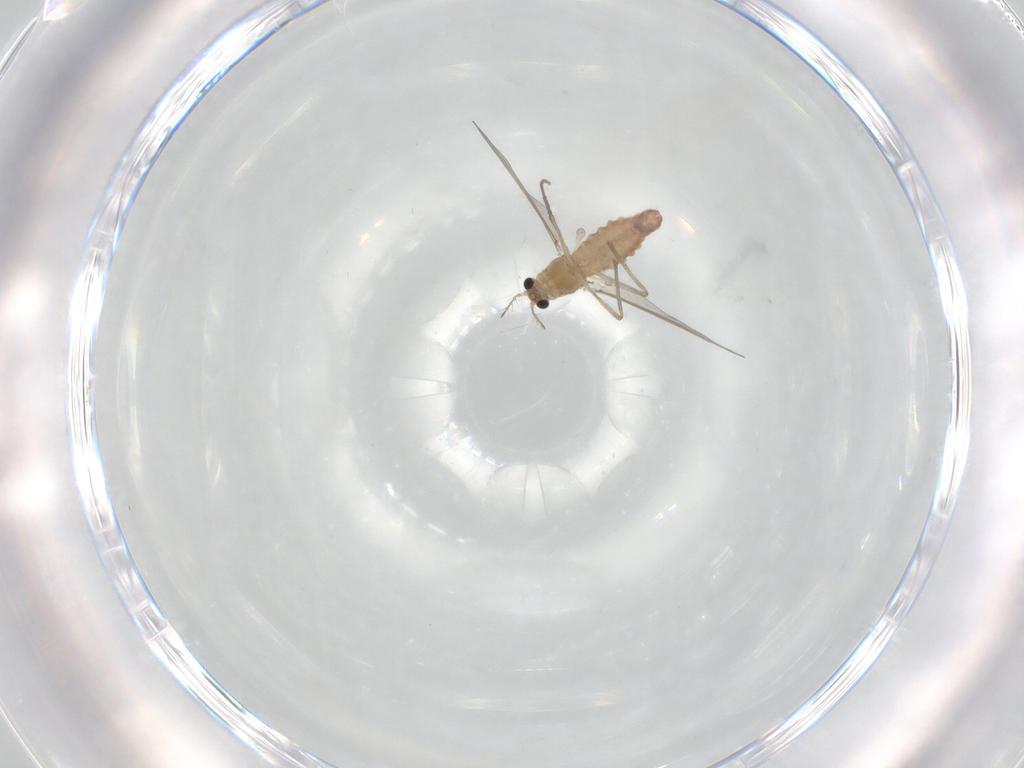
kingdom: Animalia
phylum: Arthropoda
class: Insecta
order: Diptera
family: Chironomidae
